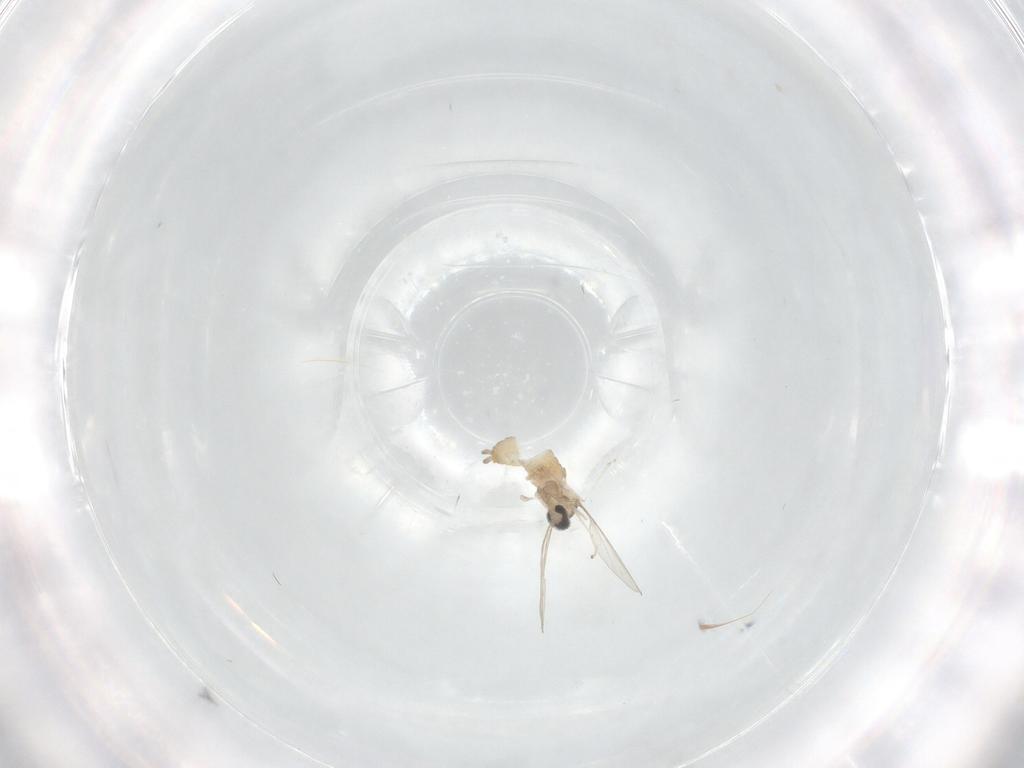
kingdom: Animalia
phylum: Arthropoda
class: Insecta
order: Diptera
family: Cecidomyiidae
